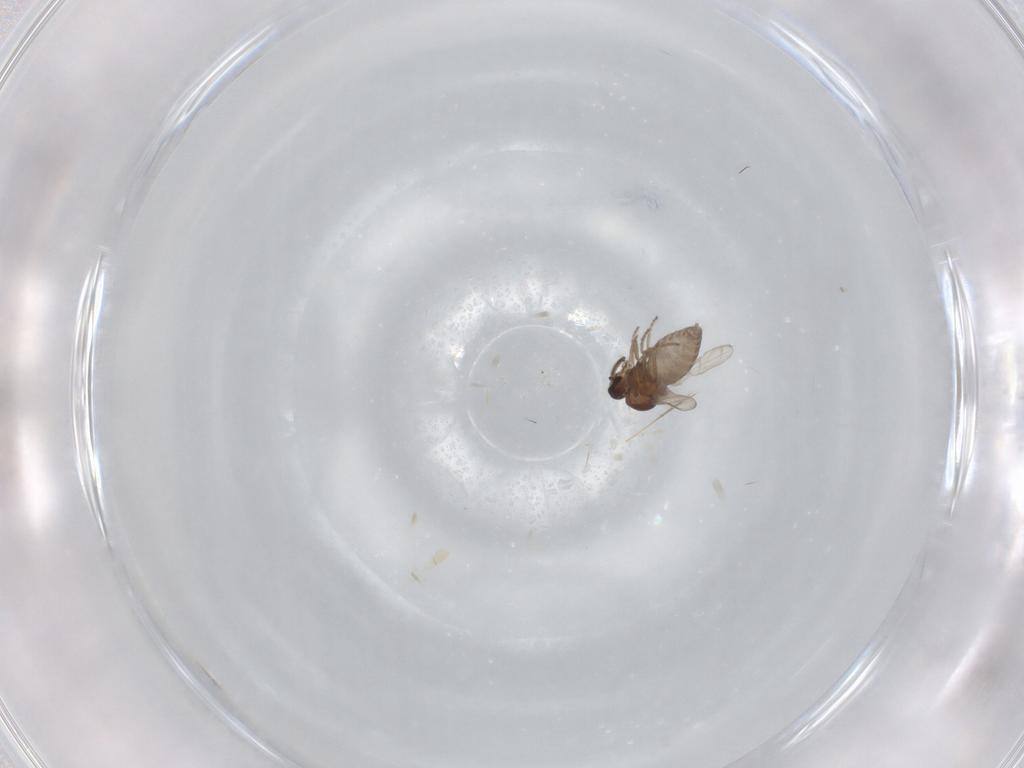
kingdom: Animalia
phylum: Arthropoda
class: Insecta
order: Diptera
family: Ceratopogonidae
